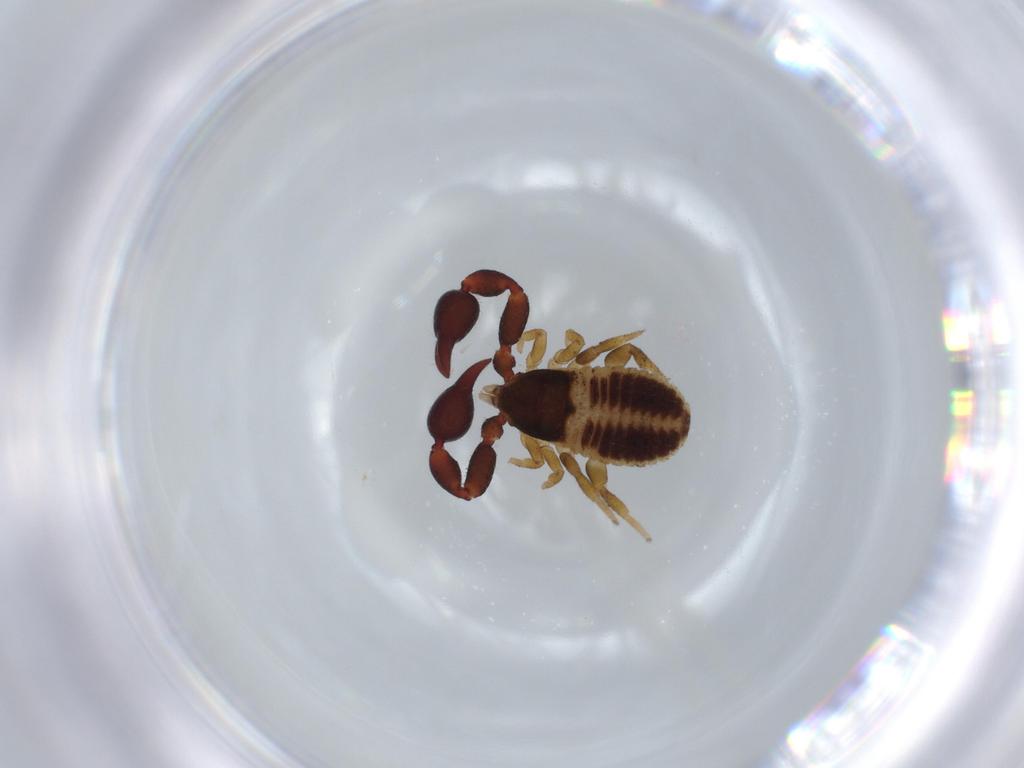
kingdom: Animalia
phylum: Arthropoda
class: Arachnida
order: Pseudoscorpiones
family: Chernetidae
